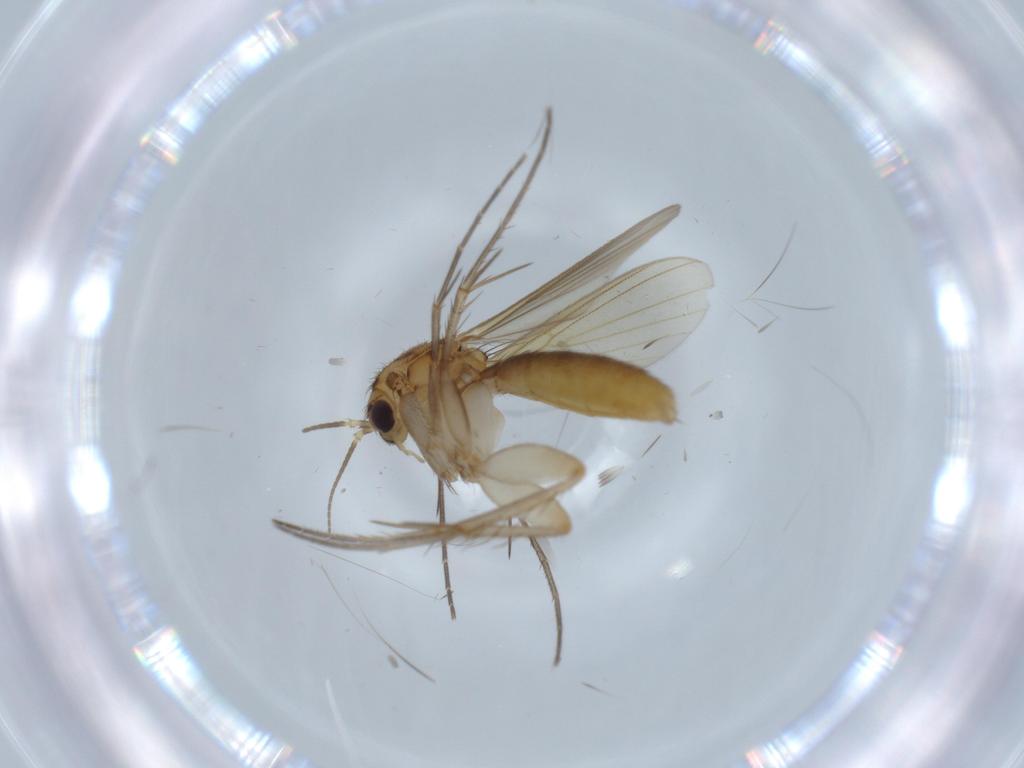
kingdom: Animalia
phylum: Arthropoda
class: Insecta
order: Diptera
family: Mycetophilidae
